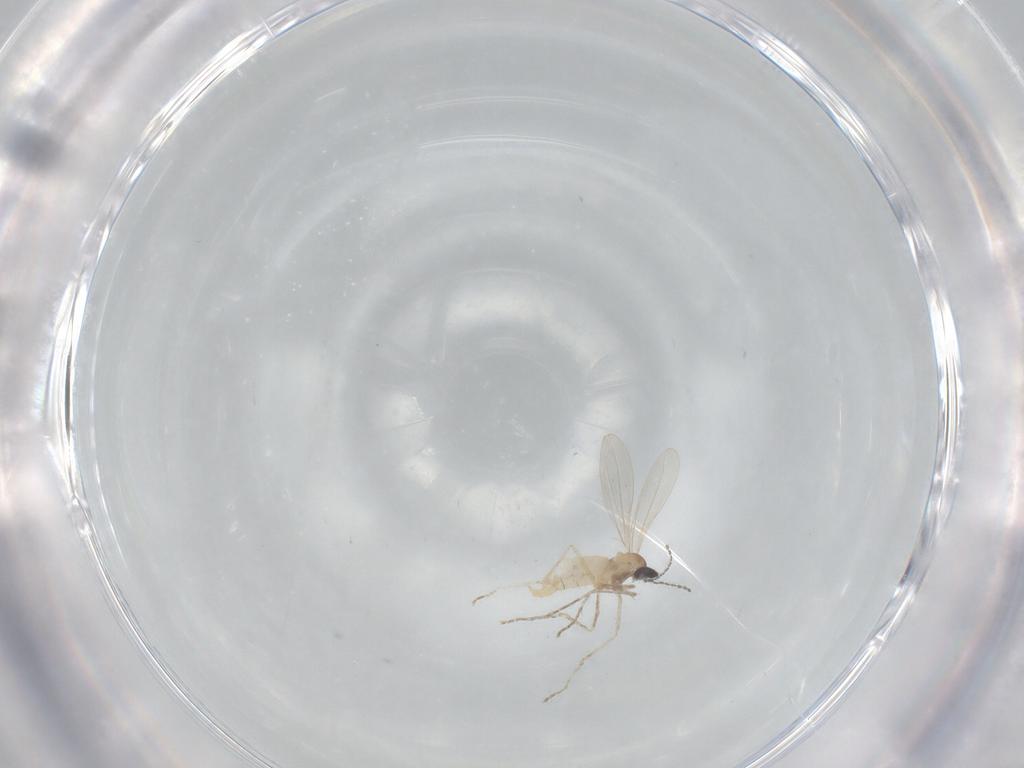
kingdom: Animalia
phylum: Arthropoda
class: Insecta
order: Diptera
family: Cecidomyiidae
